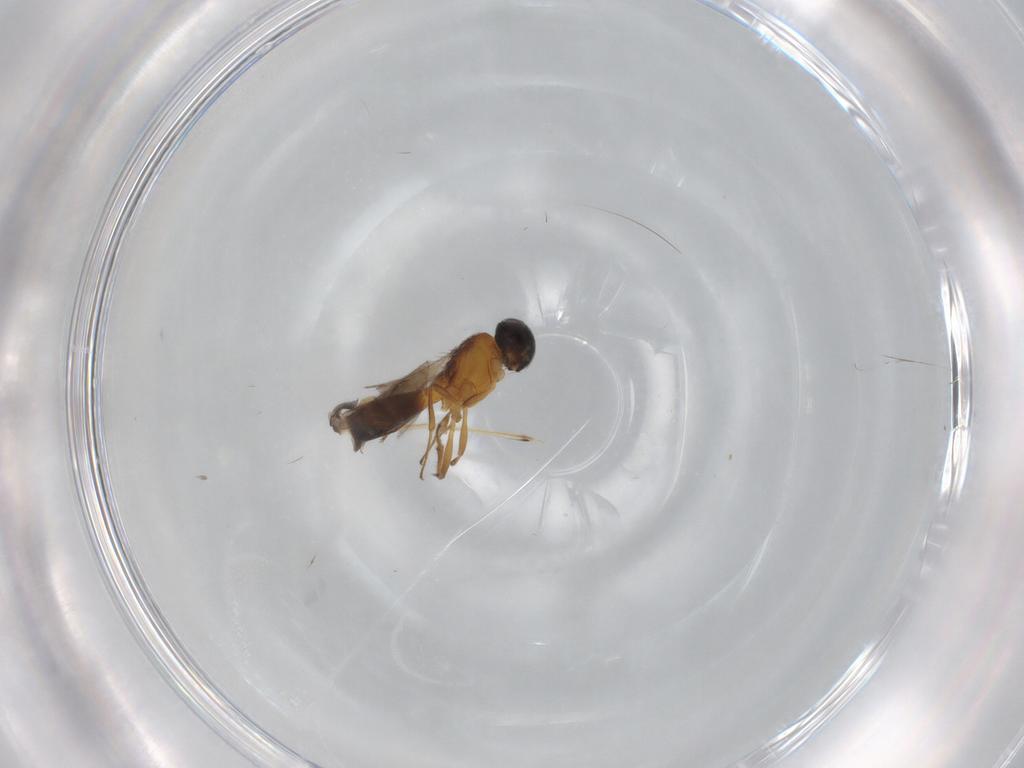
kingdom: Animalia
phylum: Arthropoda
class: Insecta
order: Hymenoptera
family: Scelionidae
